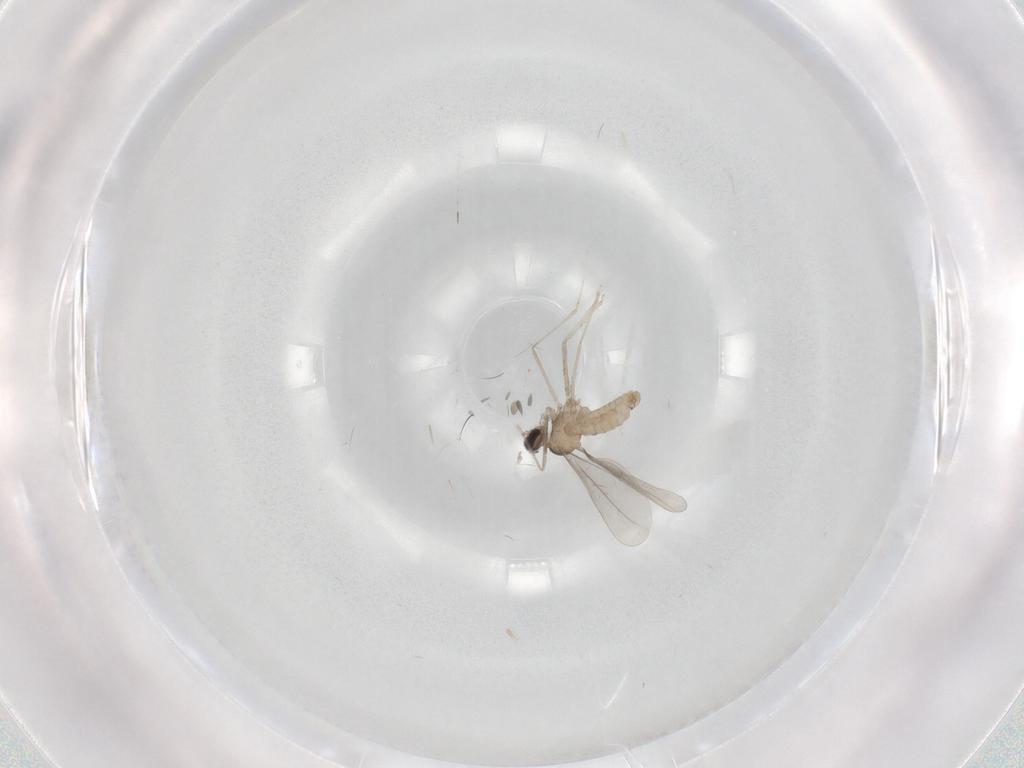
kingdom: Animalia
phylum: Arthropoda
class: Insecta
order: Diptera
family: Cecidomyiidae
